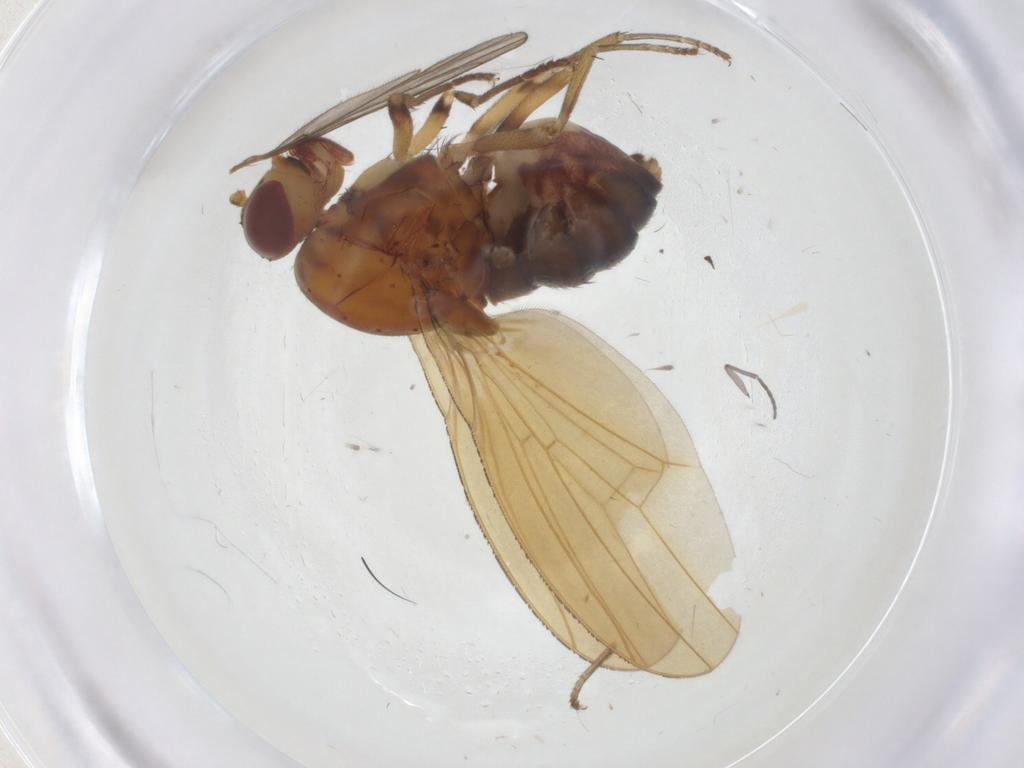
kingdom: Animalia
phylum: Arthropoda
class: Insecta
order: Diptera
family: Empididae
